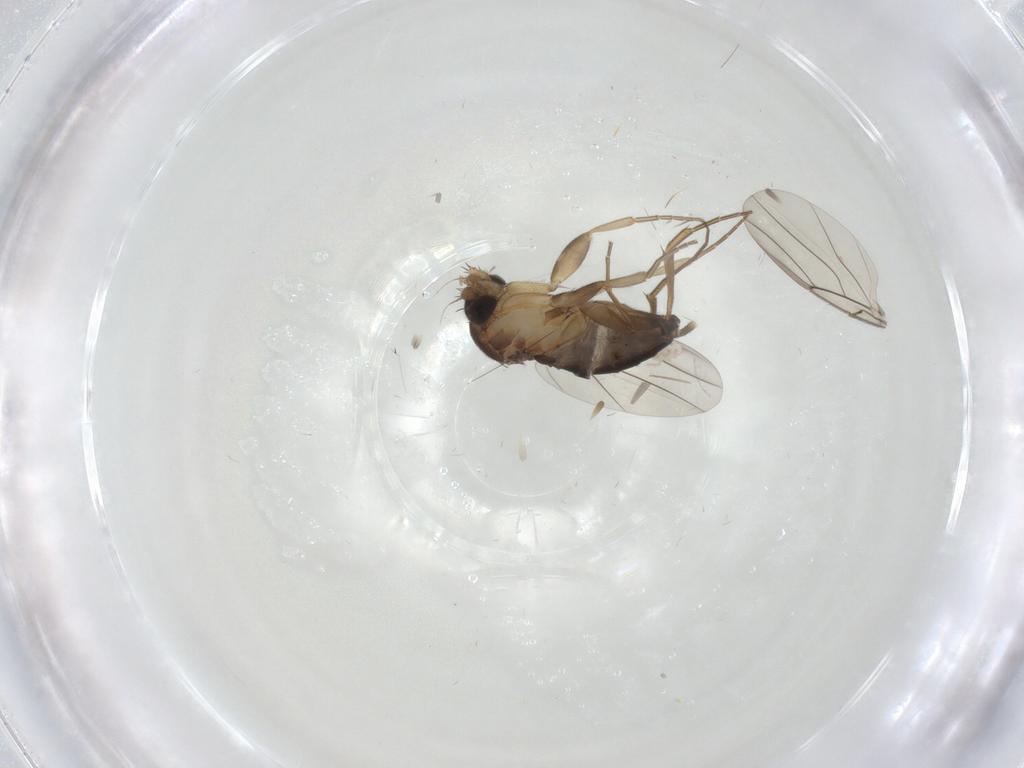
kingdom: Animalia
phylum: Arthropoda
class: Insecta
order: Diptera
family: Phoridae
